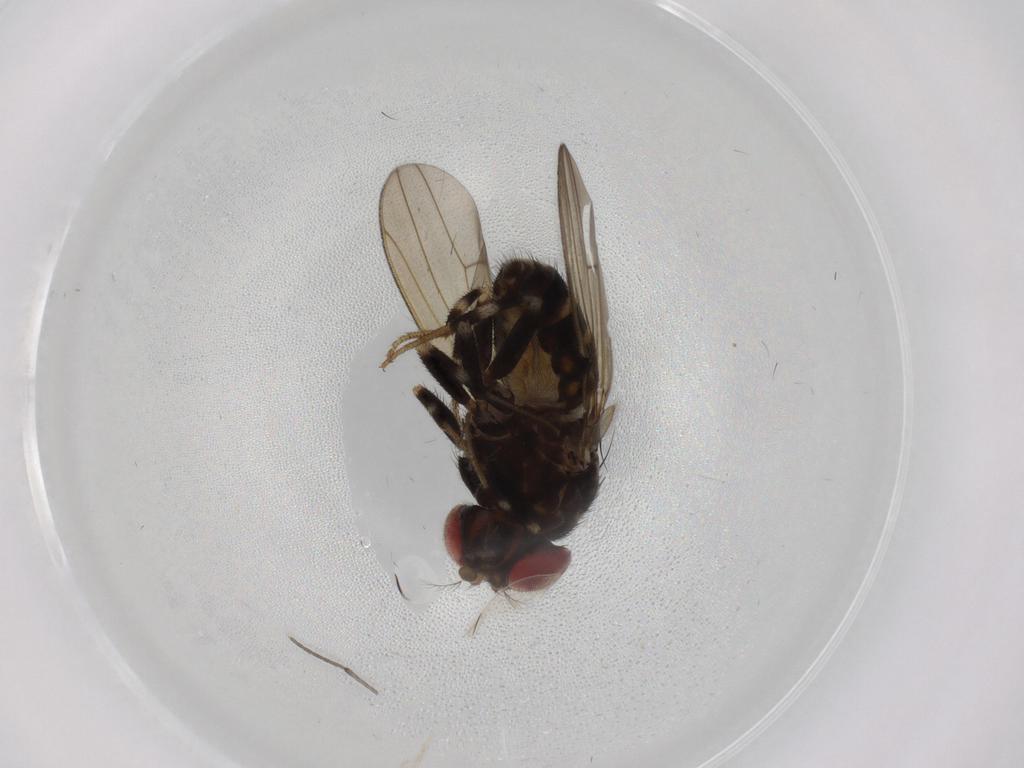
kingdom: Animalia
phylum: Arthropoda
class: Insecta
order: Diptera
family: Drosophilidae
